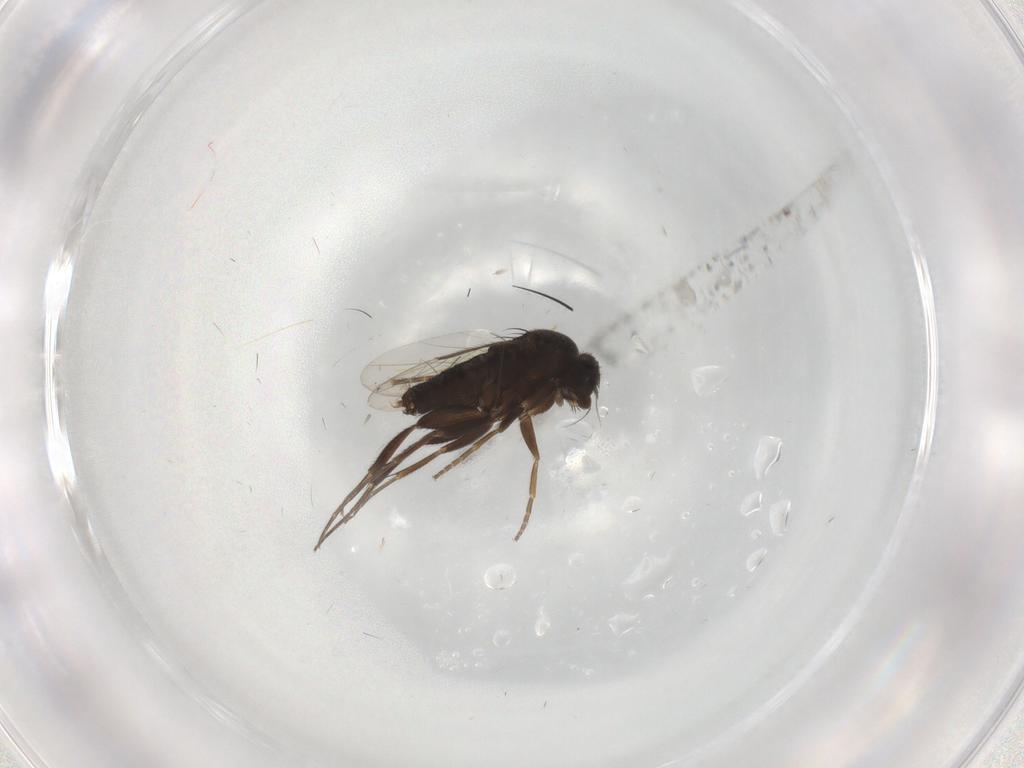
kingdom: Animalia
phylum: Arthropoda
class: Insecta
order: Diptera
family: Phoridae
